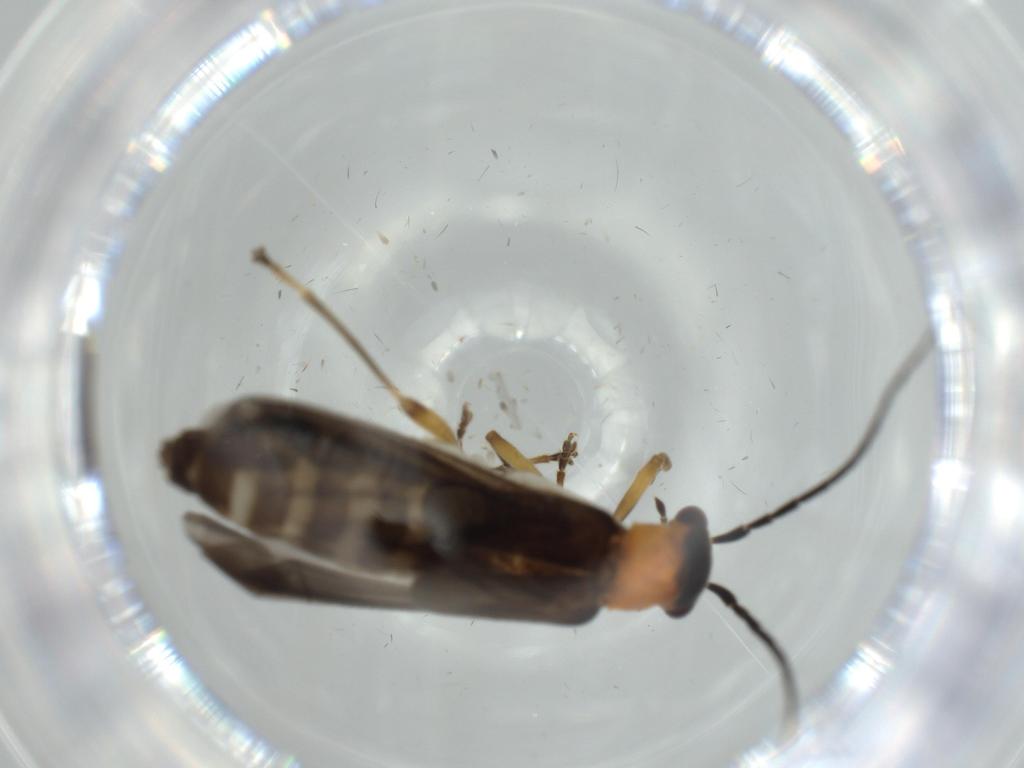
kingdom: Animalia
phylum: Arthropoda
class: Insecta
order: Coleoptera
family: Cantharidae
